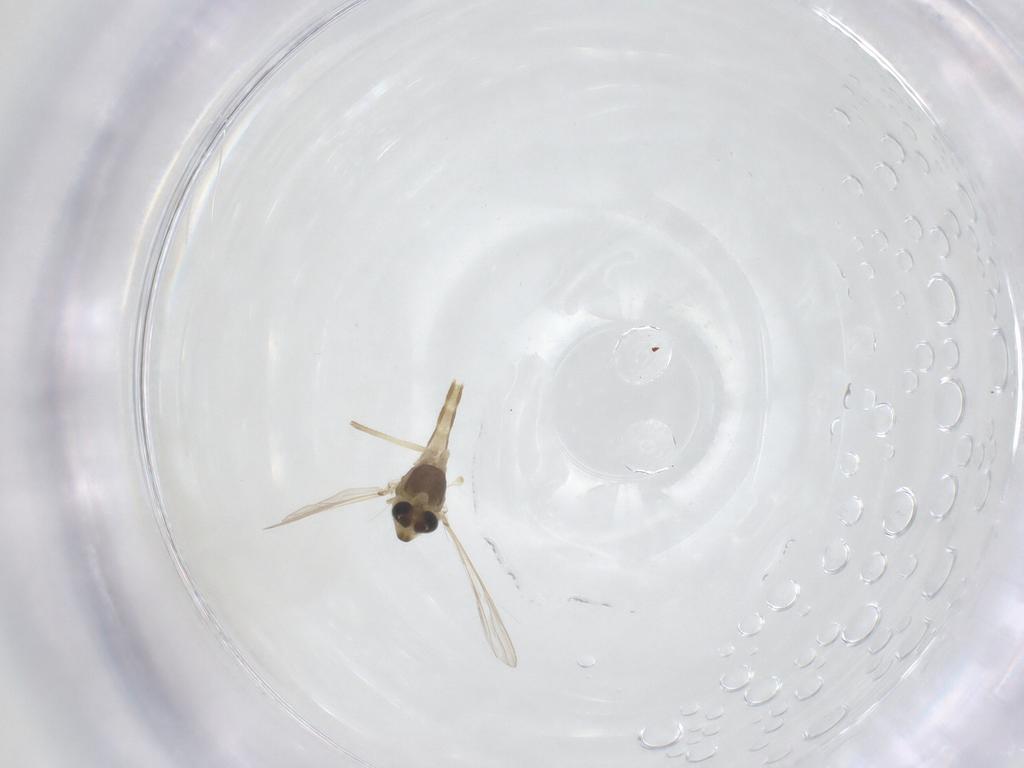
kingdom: Animalia
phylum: Arthropoda
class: Insecta
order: Diptera
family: Chironomidae
